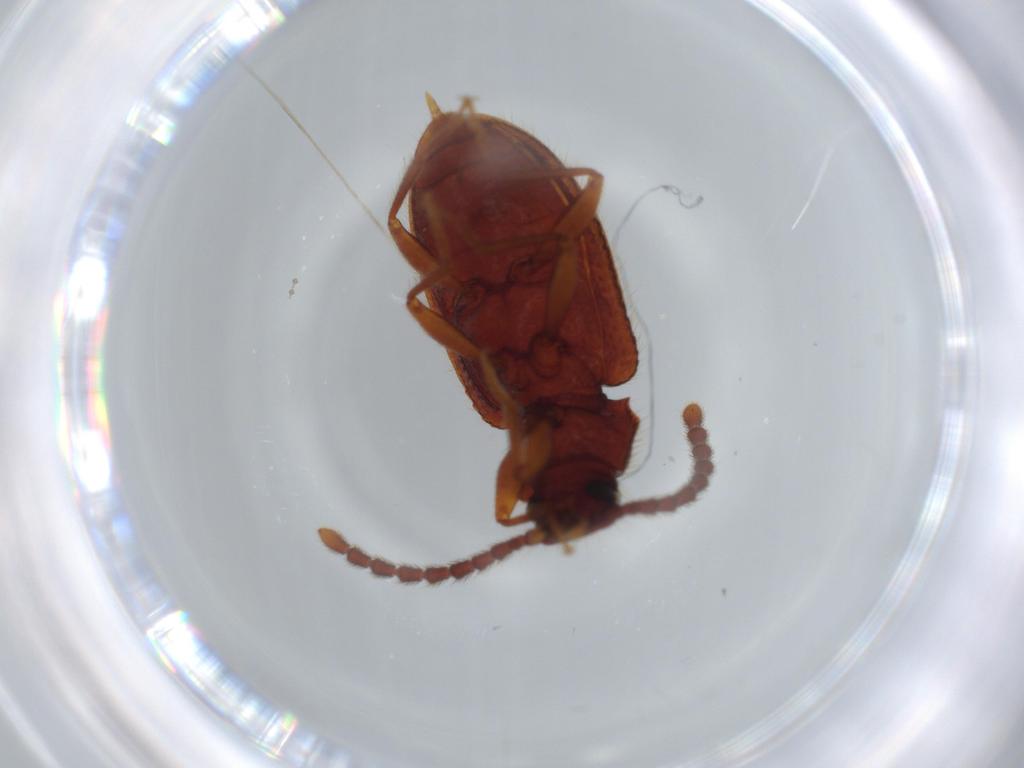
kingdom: Animalia
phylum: Arthropoda
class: Insecta
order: Coleoptera
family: Tenebrionidae
